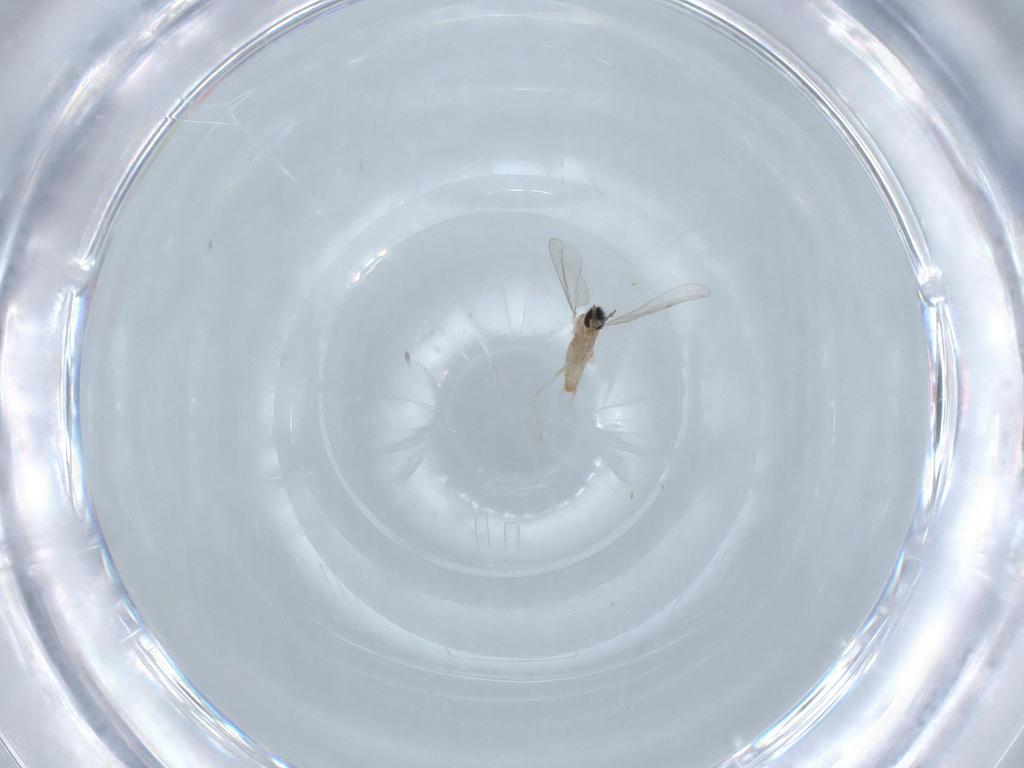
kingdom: Animalia
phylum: Arthropoda
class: Insecta
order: Diptera
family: Cecidomyiidae
